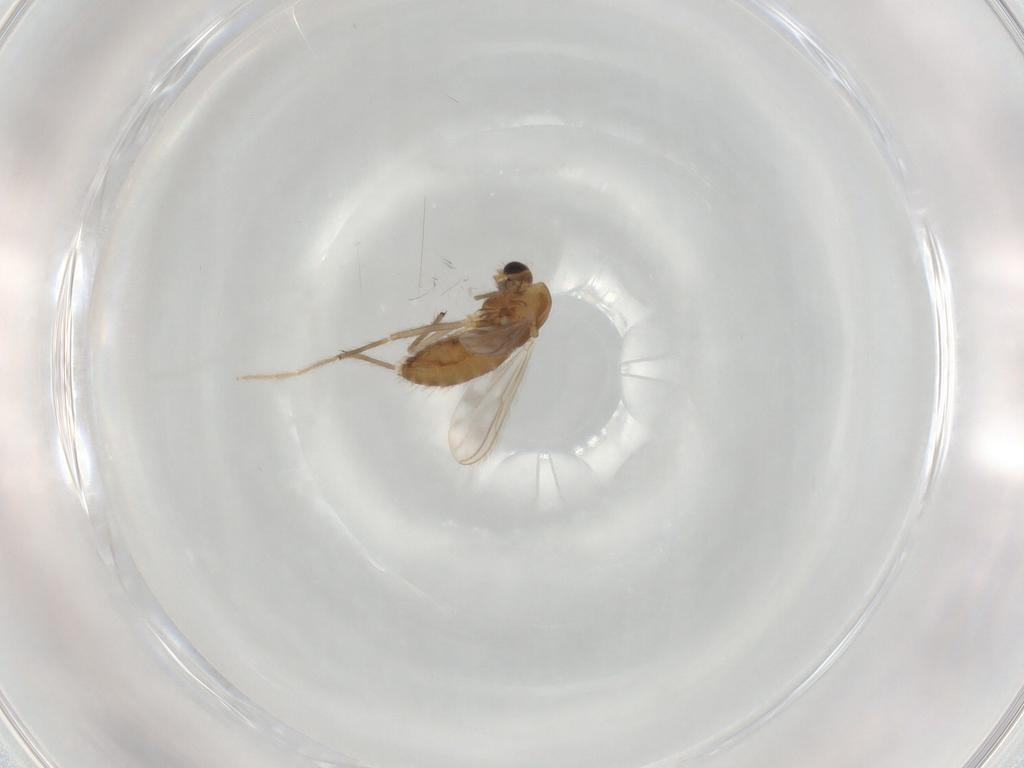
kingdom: Animalia
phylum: Arthropoda
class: Insecta
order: Diptera
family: Chironomidae
